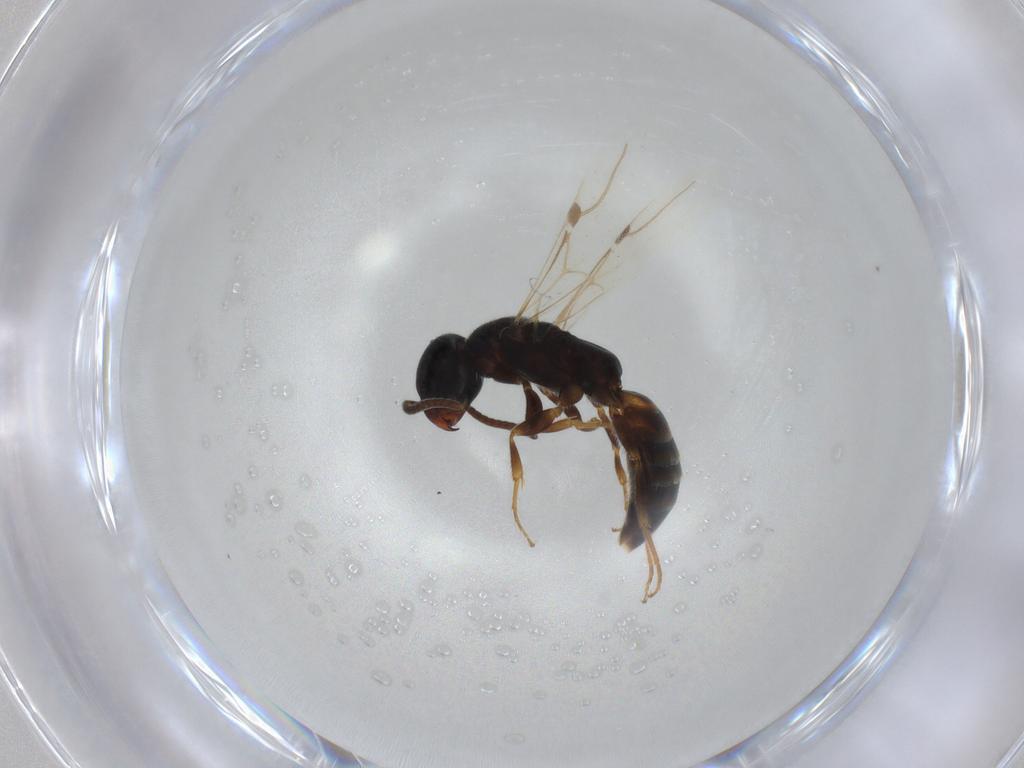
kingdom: Animalia
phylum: Arthropoda
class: Insecta
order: Hymenoptera
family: Bethylidae
